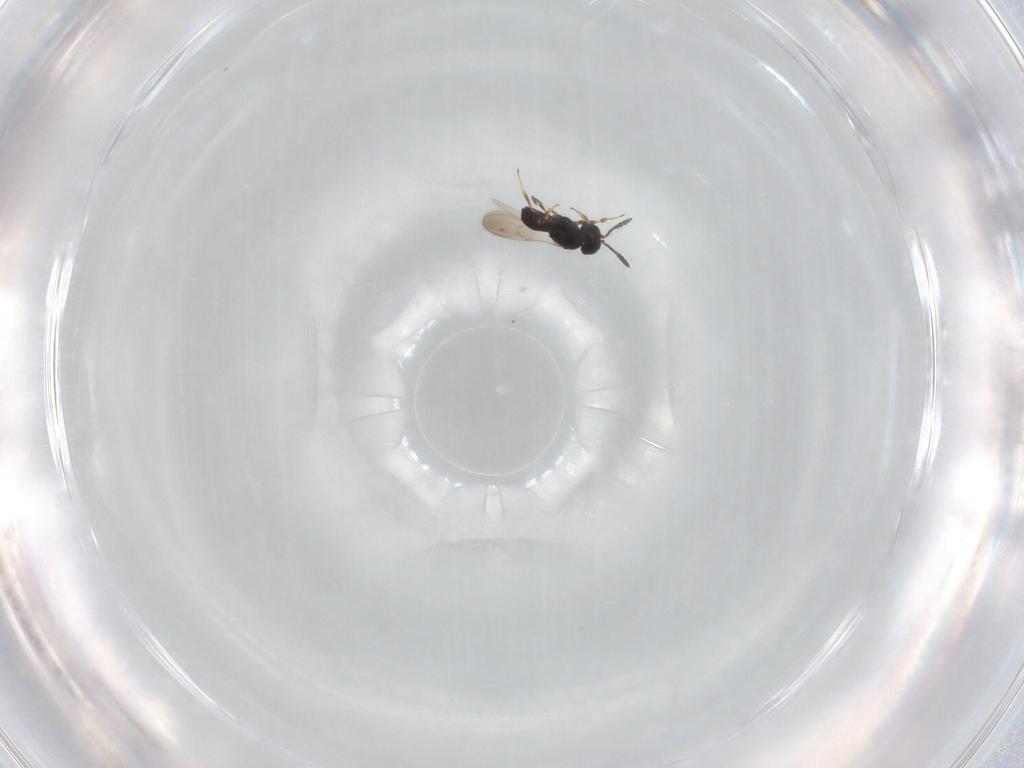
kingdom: Animalia
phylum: Arthropoda
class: Insecta
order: Hymenoptera
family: Scelionidae
